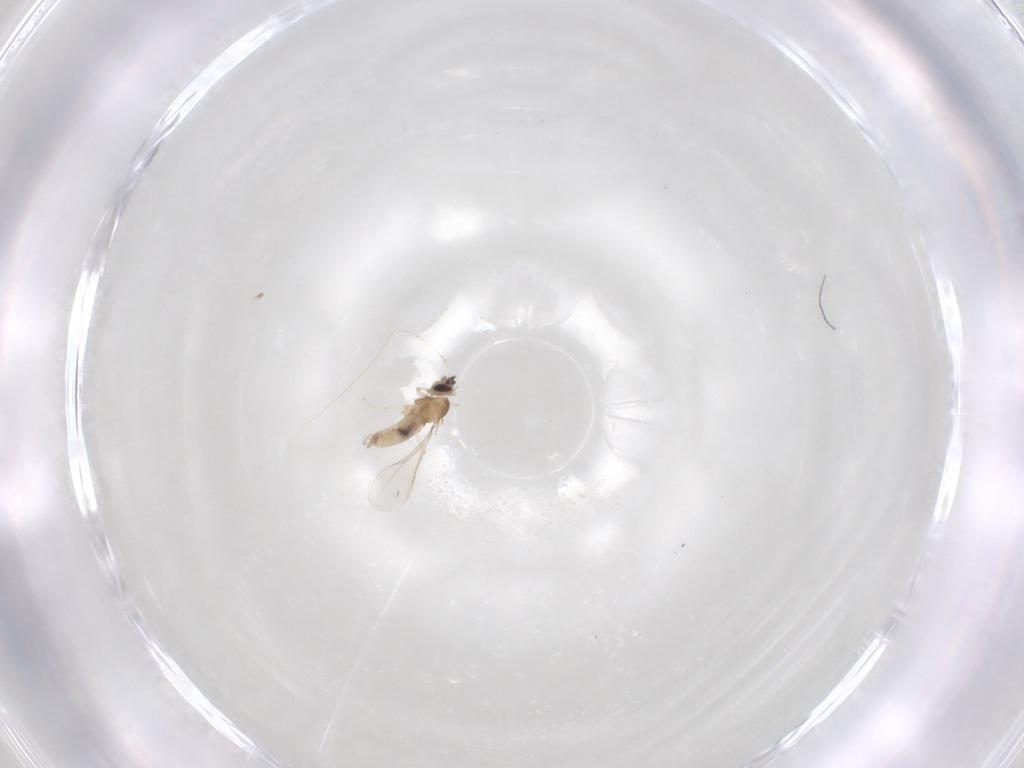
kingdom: Animalia
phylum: Arthropoda
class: Insecta
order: Diptera
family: Cecidomyiidae
